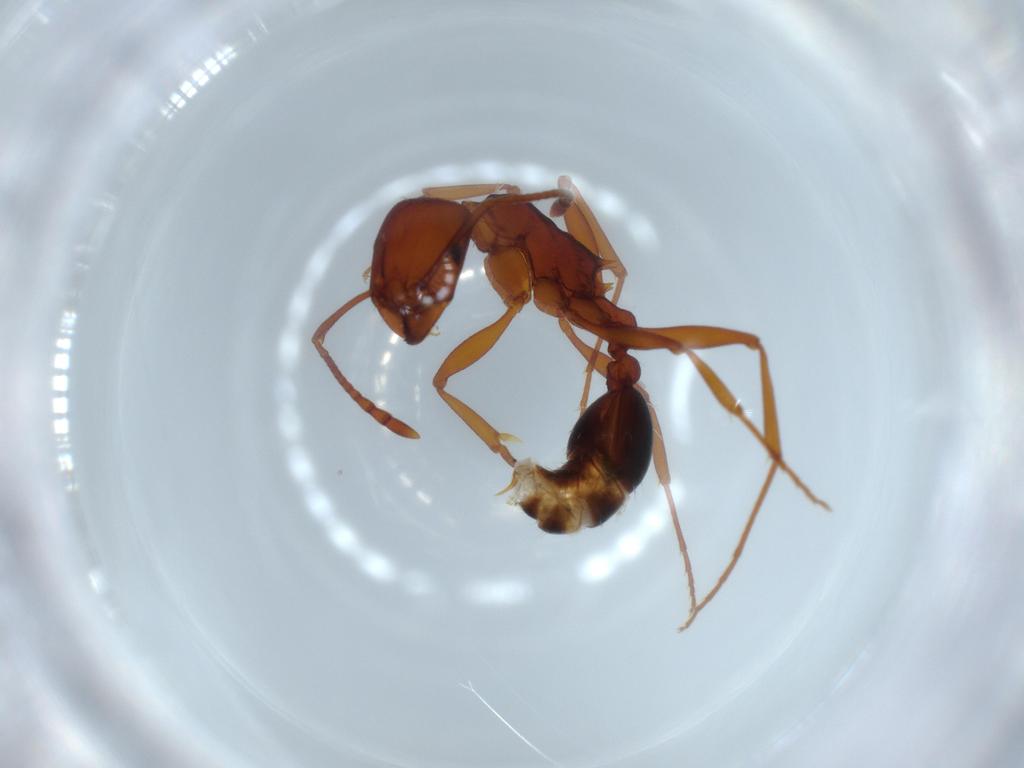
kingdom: Animalia
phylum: Arthropoda
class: Insecta
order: Hymenoptera
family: Formicidae
